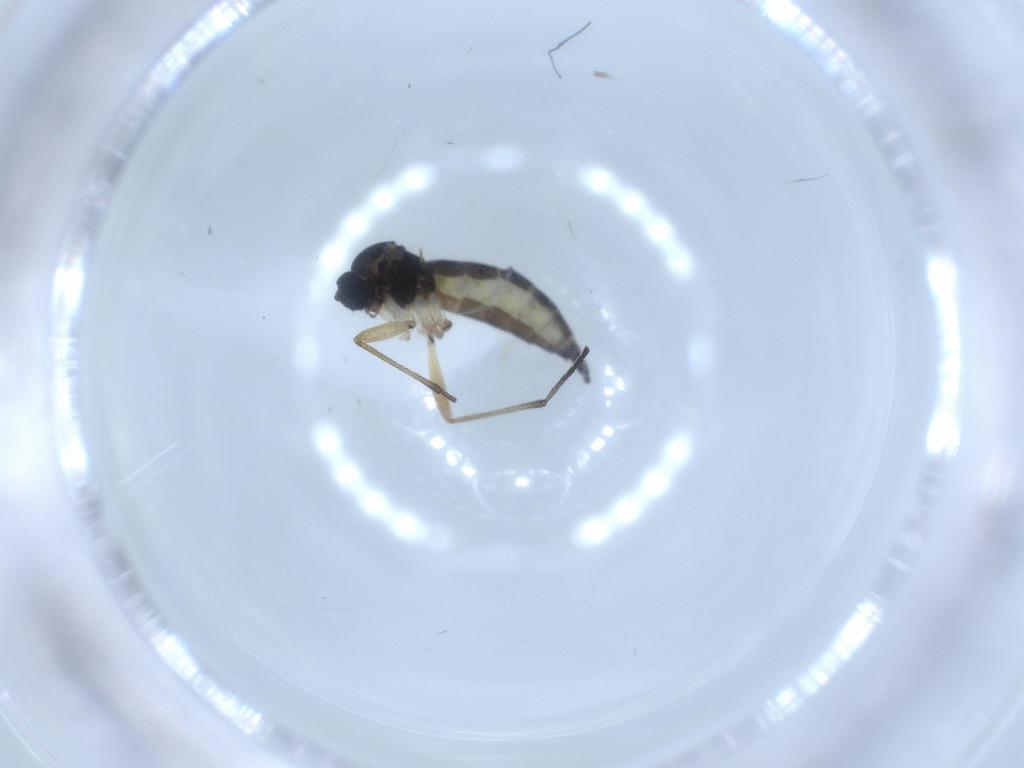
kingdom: Animalia
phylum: Arthropoda
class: Insecta
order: Diptera
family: Sciaridae
